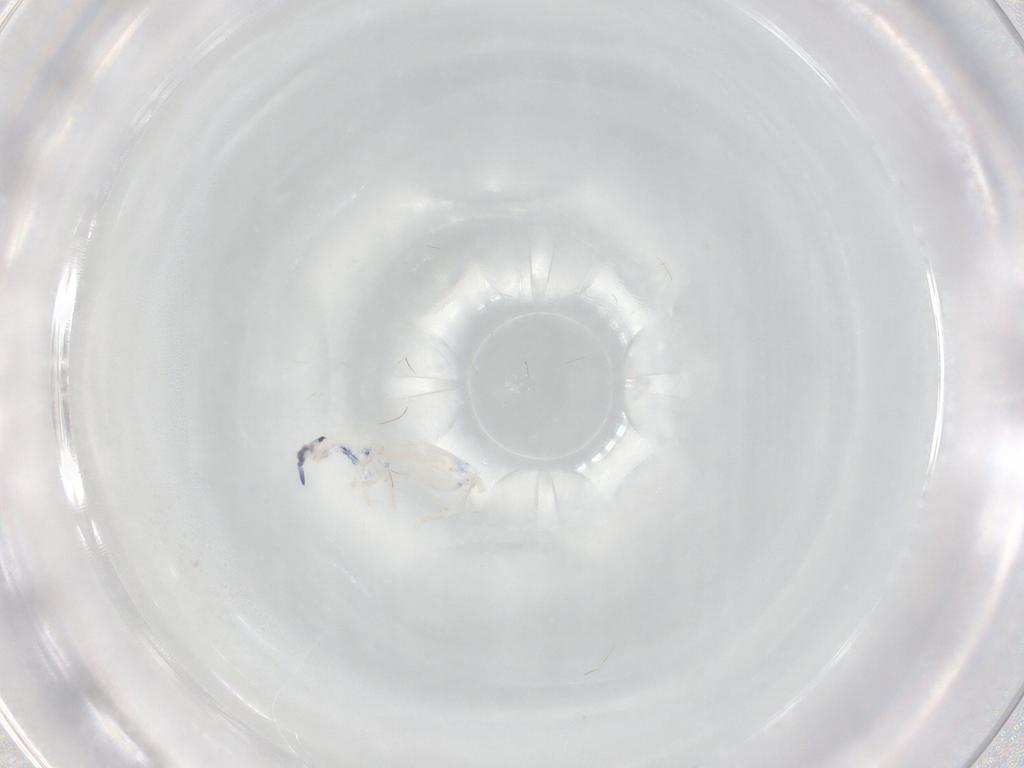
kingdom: Animalia
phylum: Arthropoda
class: Collembola
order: Entomobryomorpha
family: Entomobryidae
